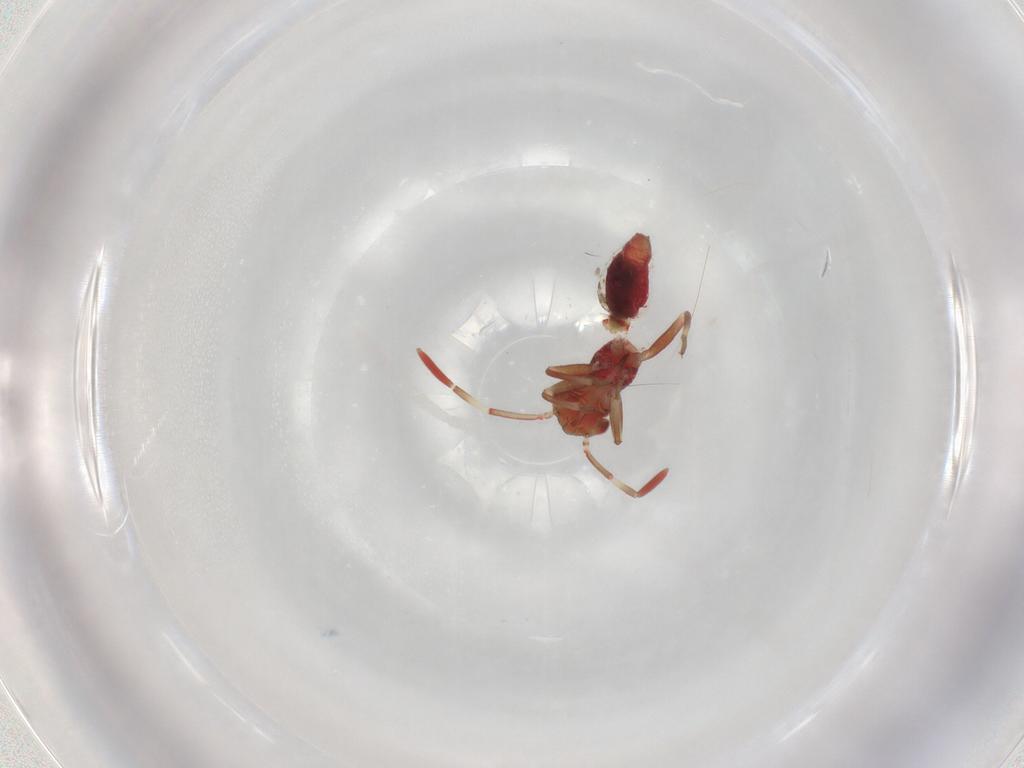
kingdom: Animalia
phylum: Arthropoda
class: Insecta
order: Hemiptera
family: Miridae
